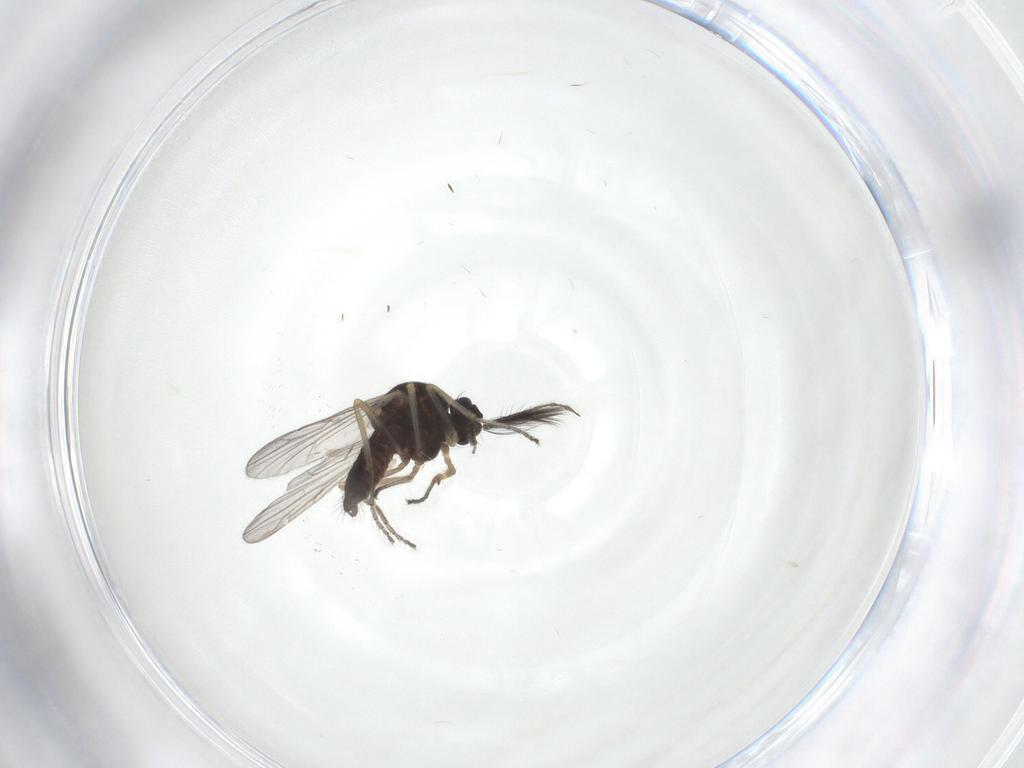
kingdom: Animalia
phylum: Arthropoda
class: Insecta
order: Diptera
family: Ceratopogonidae
